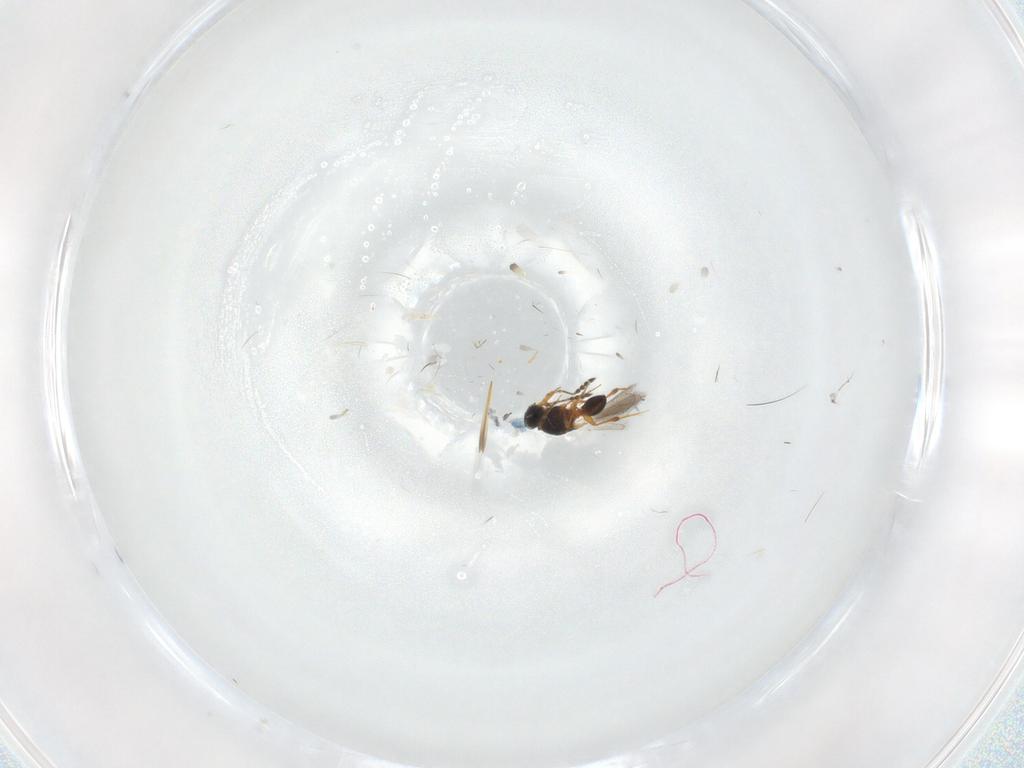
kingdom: Animalia
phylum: Arthropoda
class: Insecta
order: Hymenoptera
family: Platygastridae
